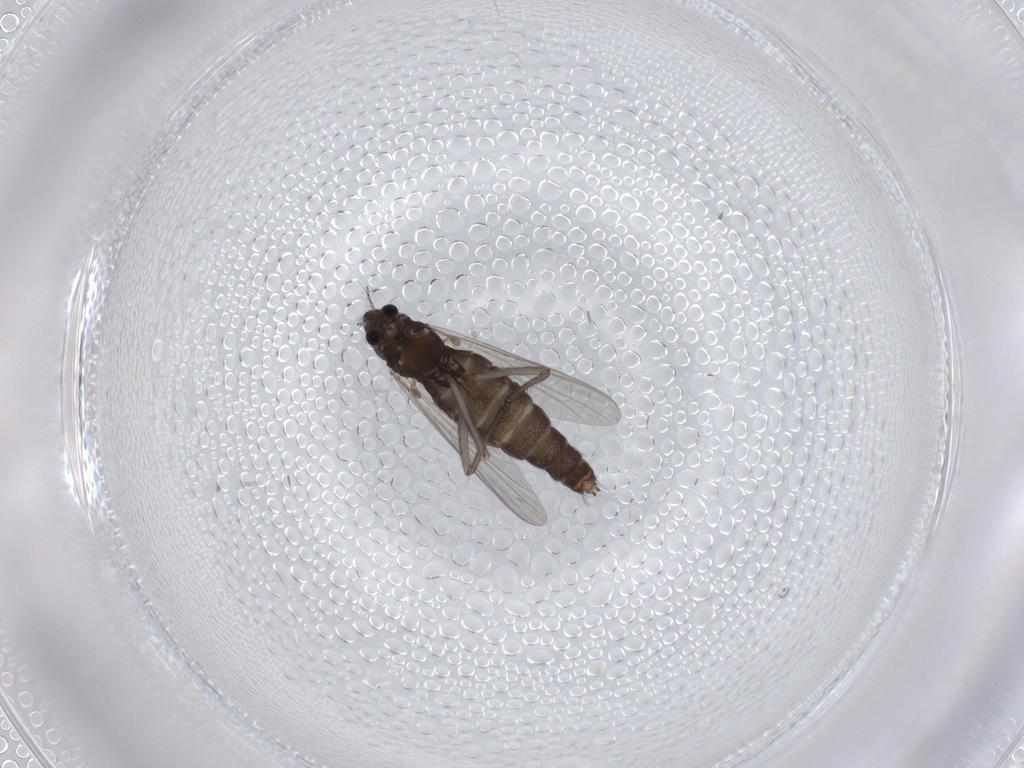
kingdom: Animalia
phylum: Arthropoda
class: Insecta
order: Diptera
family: Chironomidae
